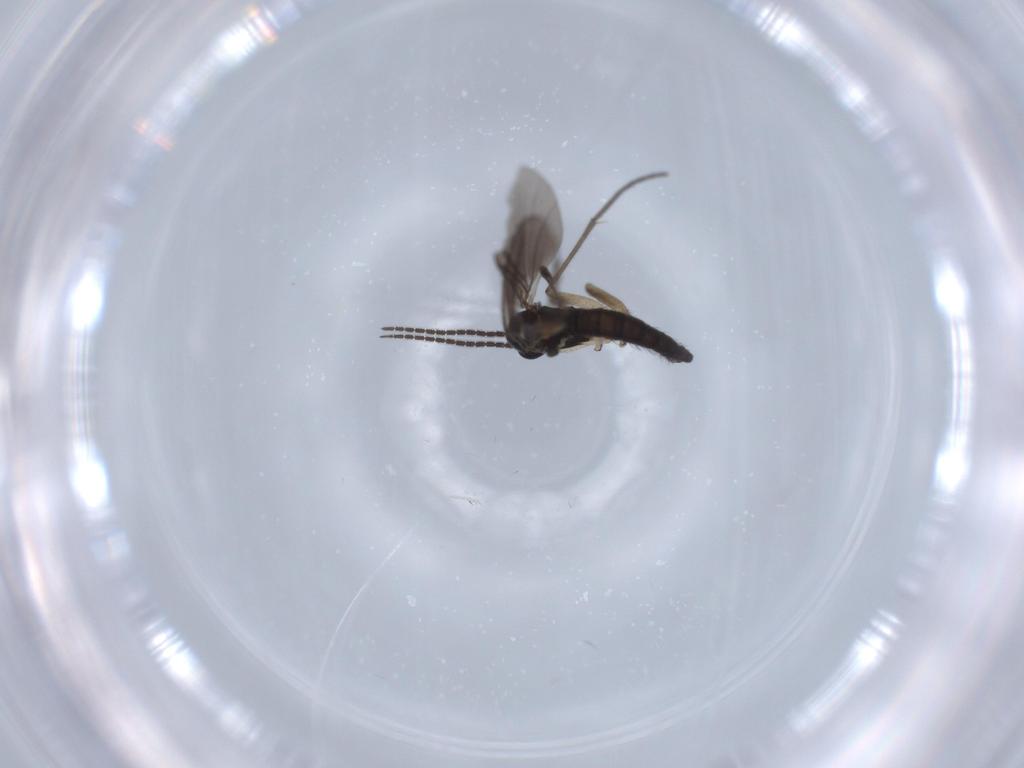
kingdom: Animalia
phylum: Arthropoda
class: Insecta
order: Diptera
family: Sciaridae
